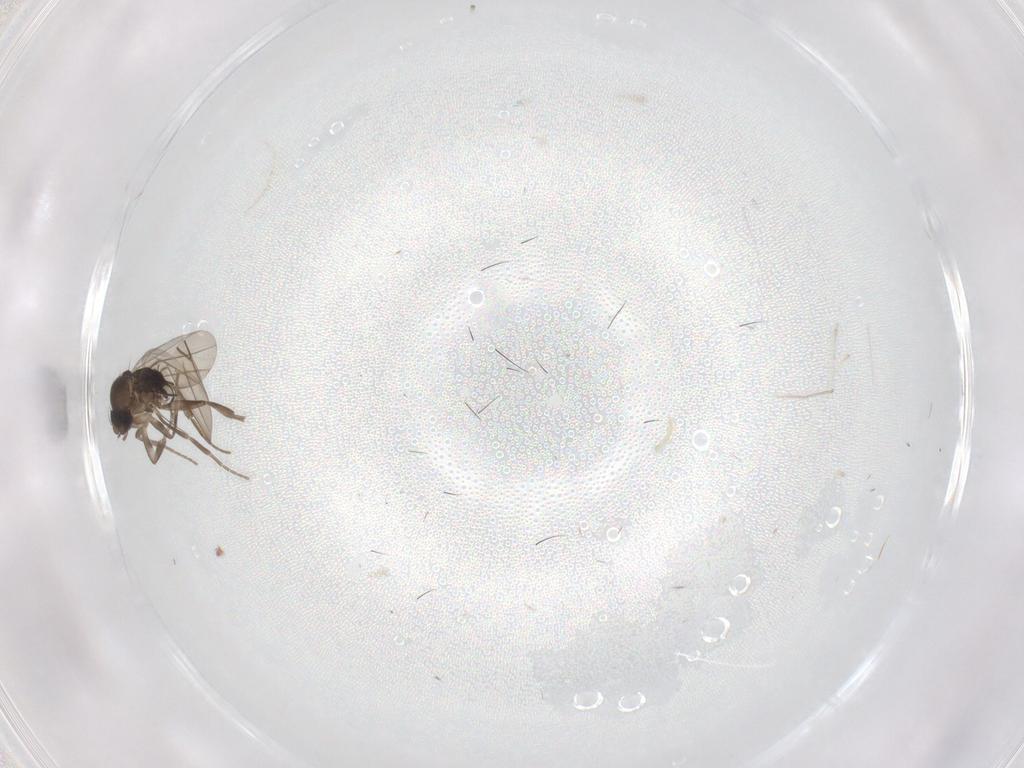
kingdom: Animalia
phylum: Arthropoda
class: Insecta
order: Diptera
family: Phoridae
